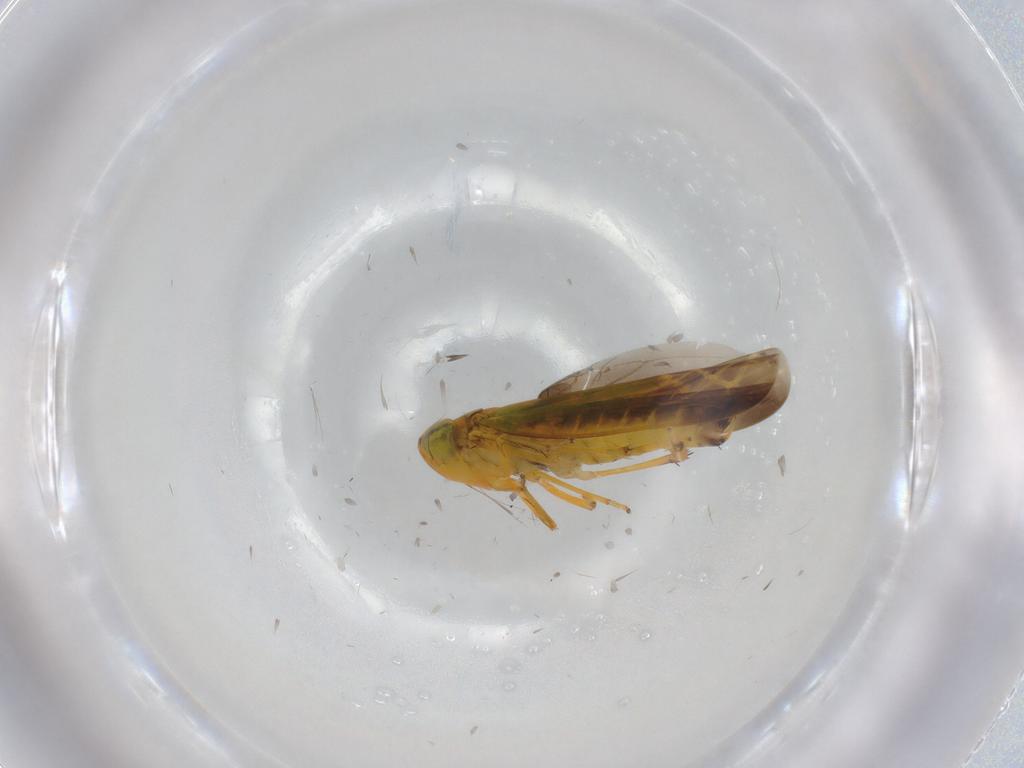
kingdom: Animalia
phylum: Arthropoda
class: Insecta
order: Hemiptera
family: Cicadellidae
